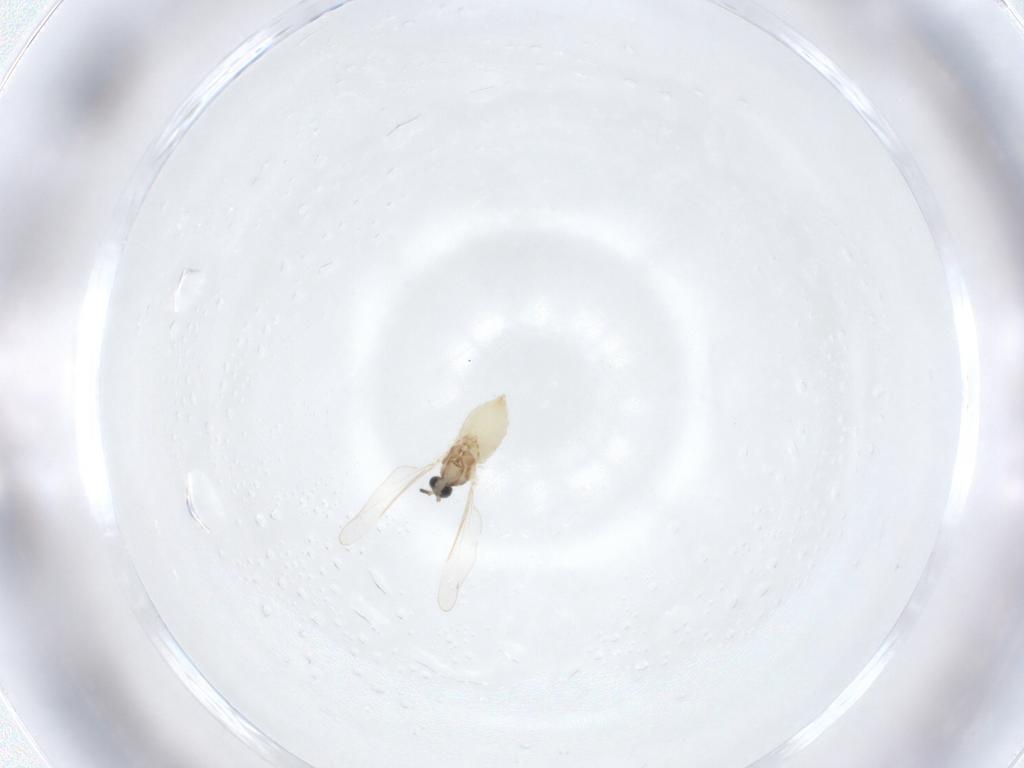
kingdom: Animalia
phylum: Arthropoda
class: Insecta
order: Diptera
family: Cecidomyiidae
